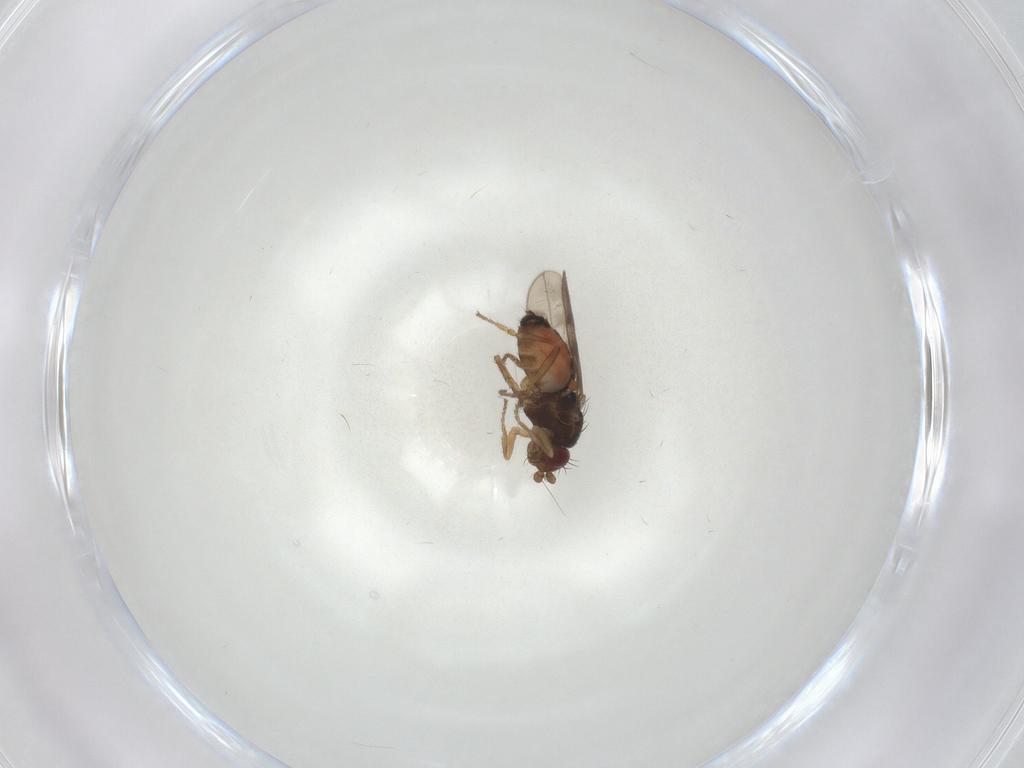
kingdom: Animalia
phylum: Arthropoda
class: Insecta
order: Diptera
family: Sphaeroceridae
